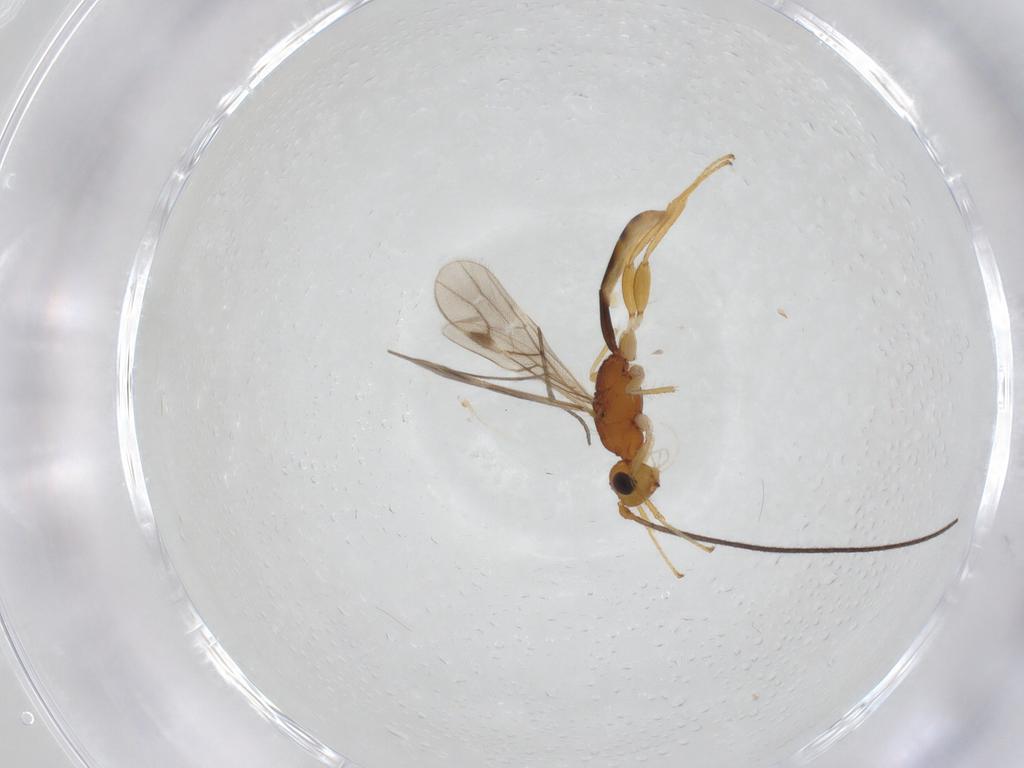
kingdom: Animalia
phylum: Arthropoda
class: Insecta
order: Hymenoptera
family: Braconidae
